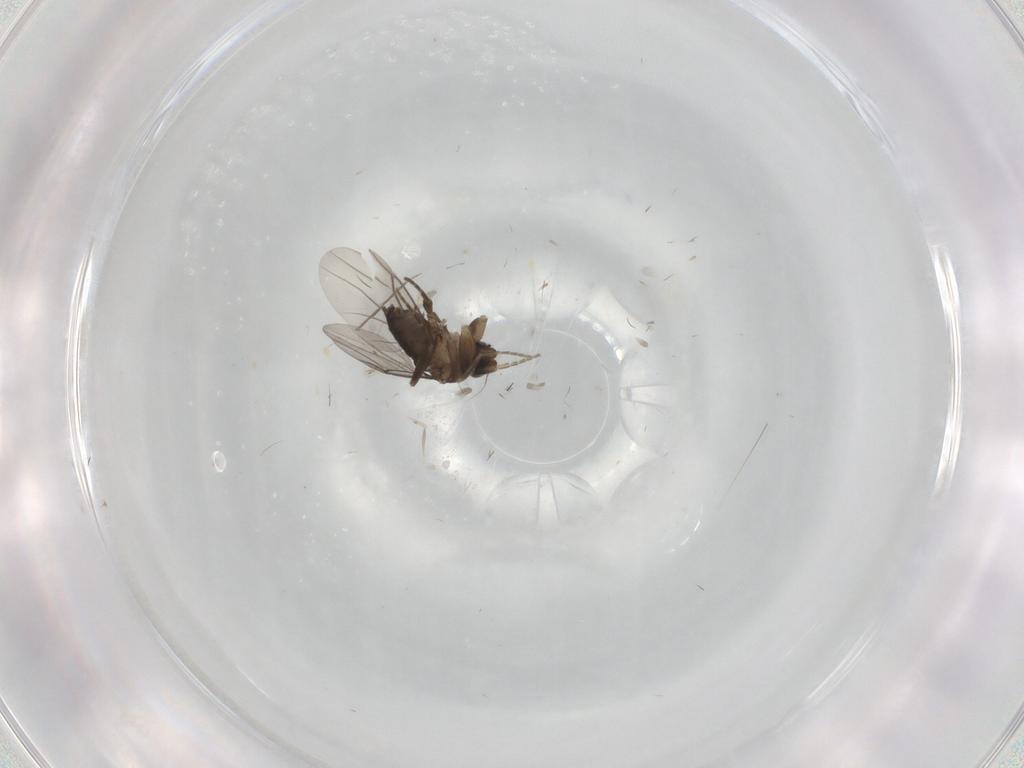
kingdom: Animalia
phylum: Arthropoda
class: Insecta
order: Diptera
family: Phoridae
